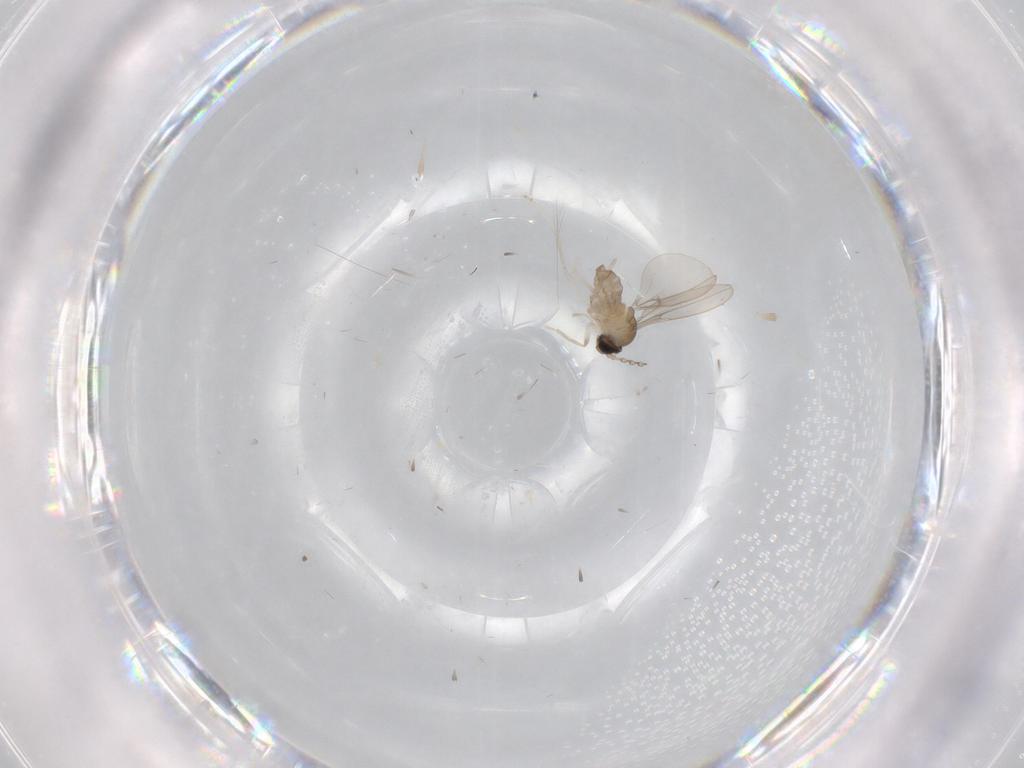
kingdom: Animalia
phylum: Arthropoda
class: Insecta
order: Diptera
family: Cecidomyiidae
